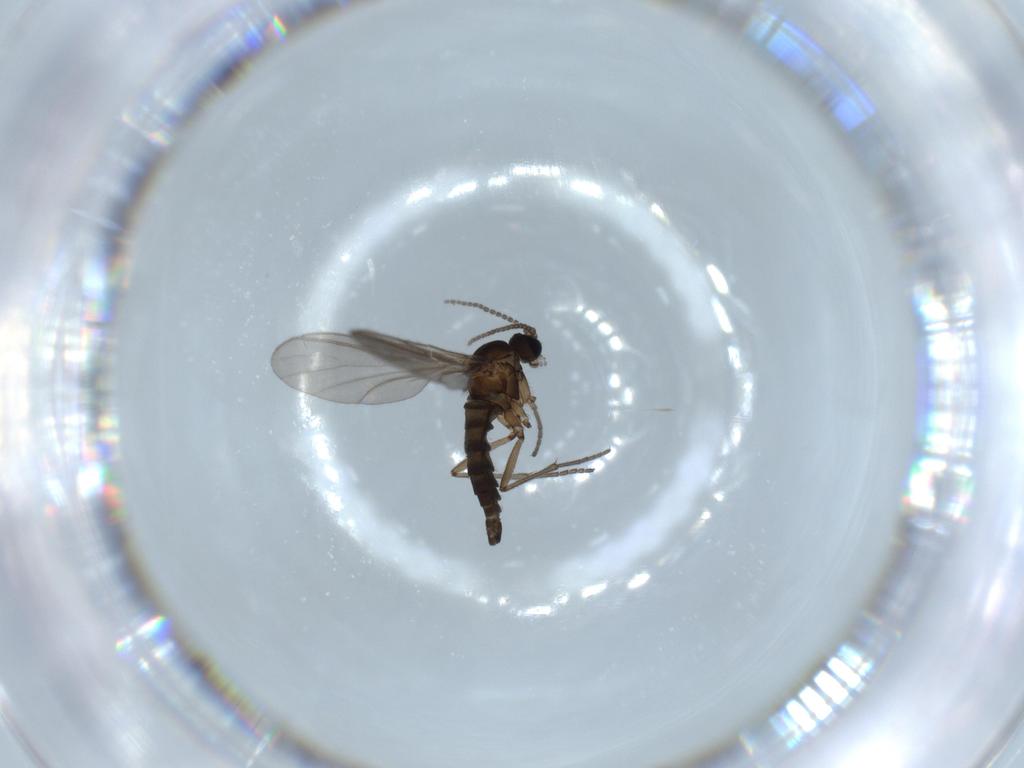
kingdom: Animalia
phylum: Arthropoda
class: Insecta
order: Diptera
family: Sciaridae
